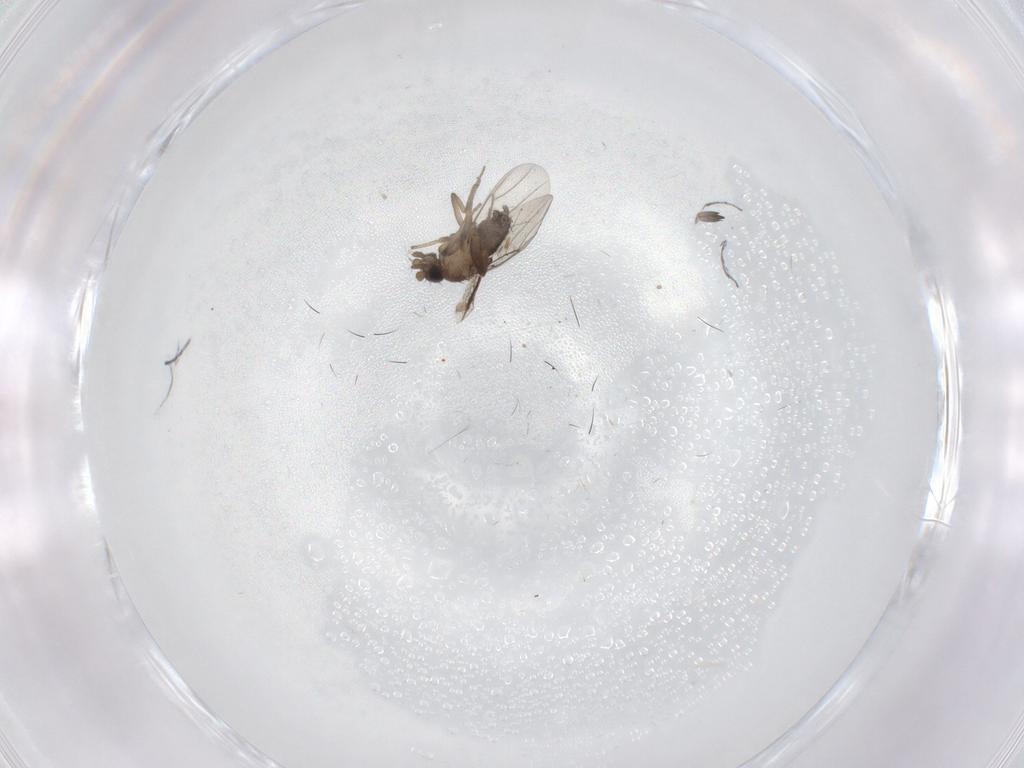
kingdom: Animalia
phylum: Arthropoda
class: Insecta
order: Diptera
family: Phoridae
